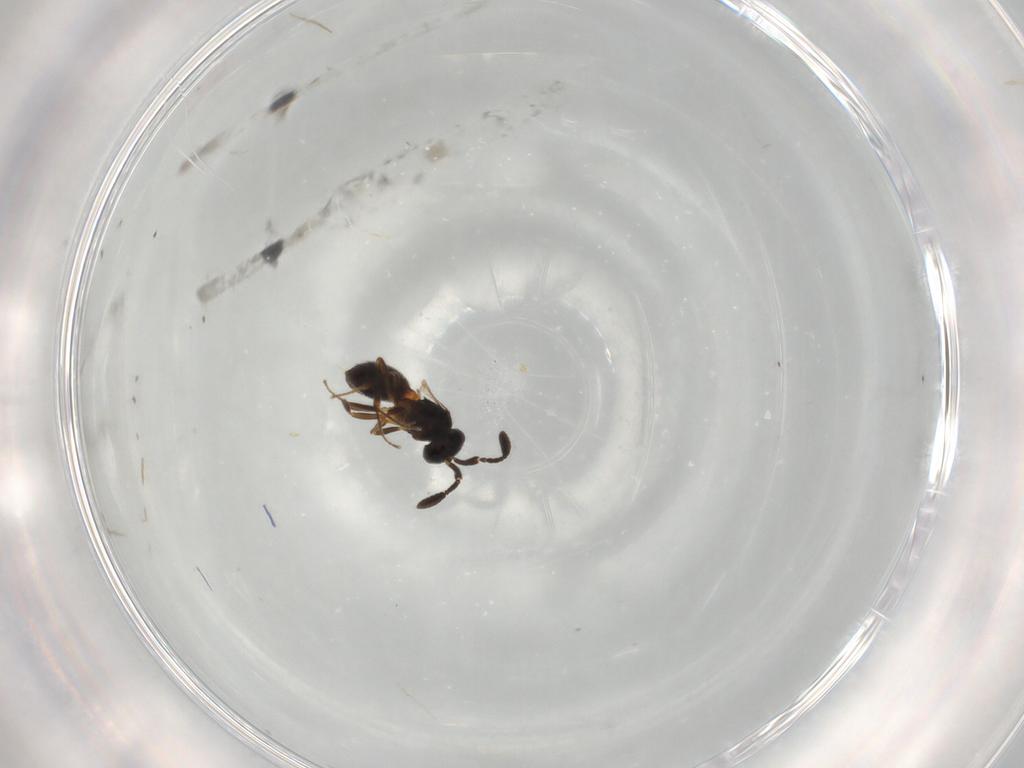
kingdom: Animalia
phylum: Arthropoda
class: Insecta
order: Hymenoptera
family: Scelionidae
